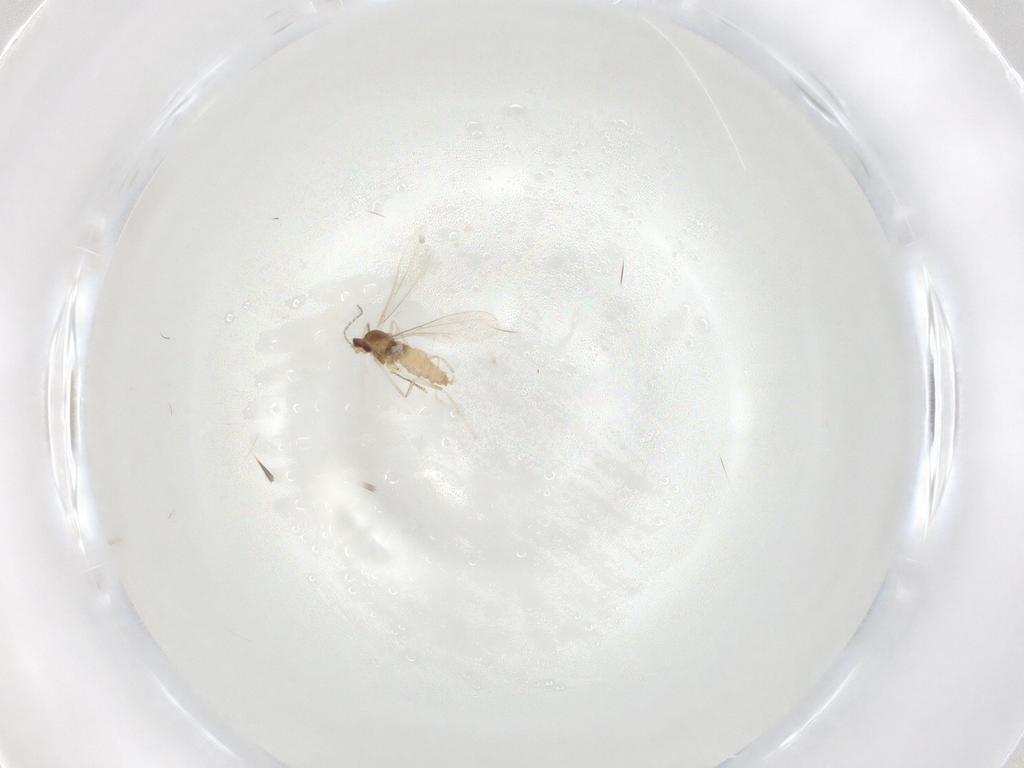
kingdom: Animalia
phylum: Arthropoda
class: Insecta
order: Diptera
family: Cecidomyiidae
